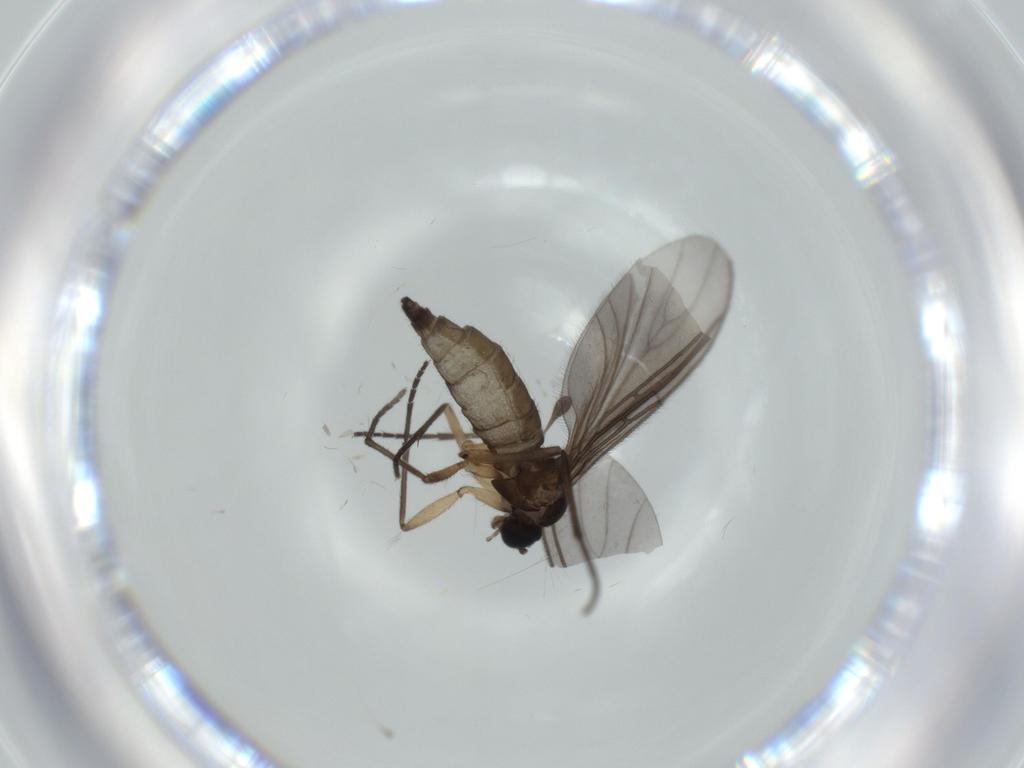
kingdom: Animalia
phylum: Arthropoda
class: Insecta
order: Diptera
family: Sciaridae
